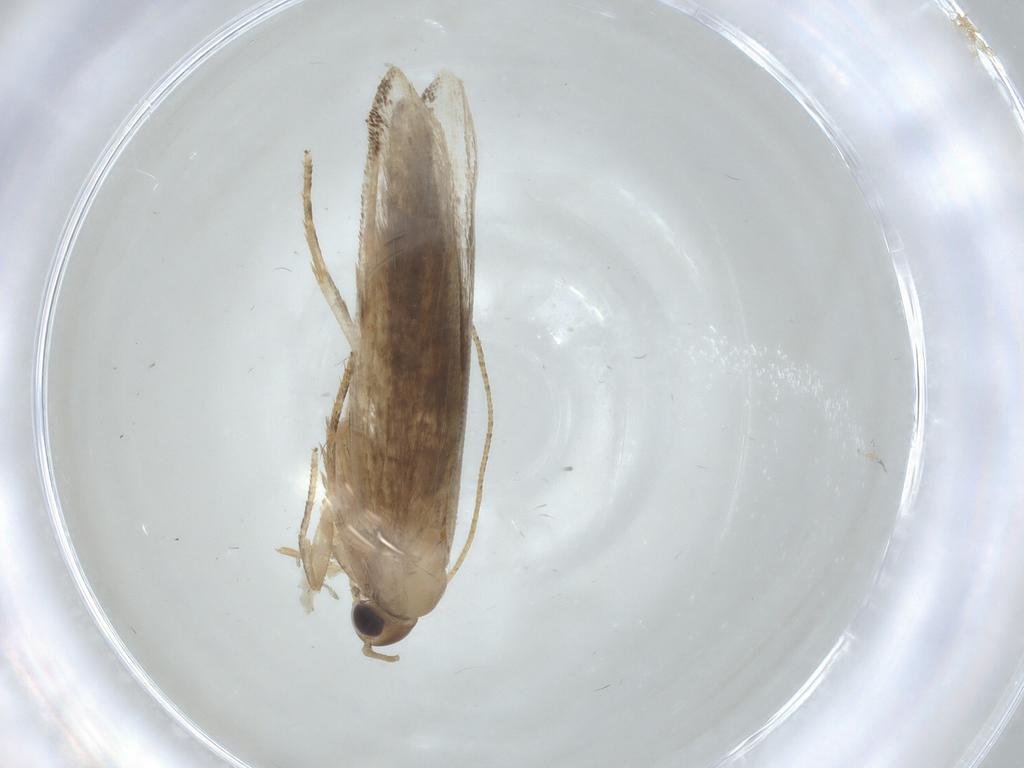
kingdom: Animalia
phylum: Arthropoda
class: Insecta
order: Lepidoptera
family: Gelechiidae
